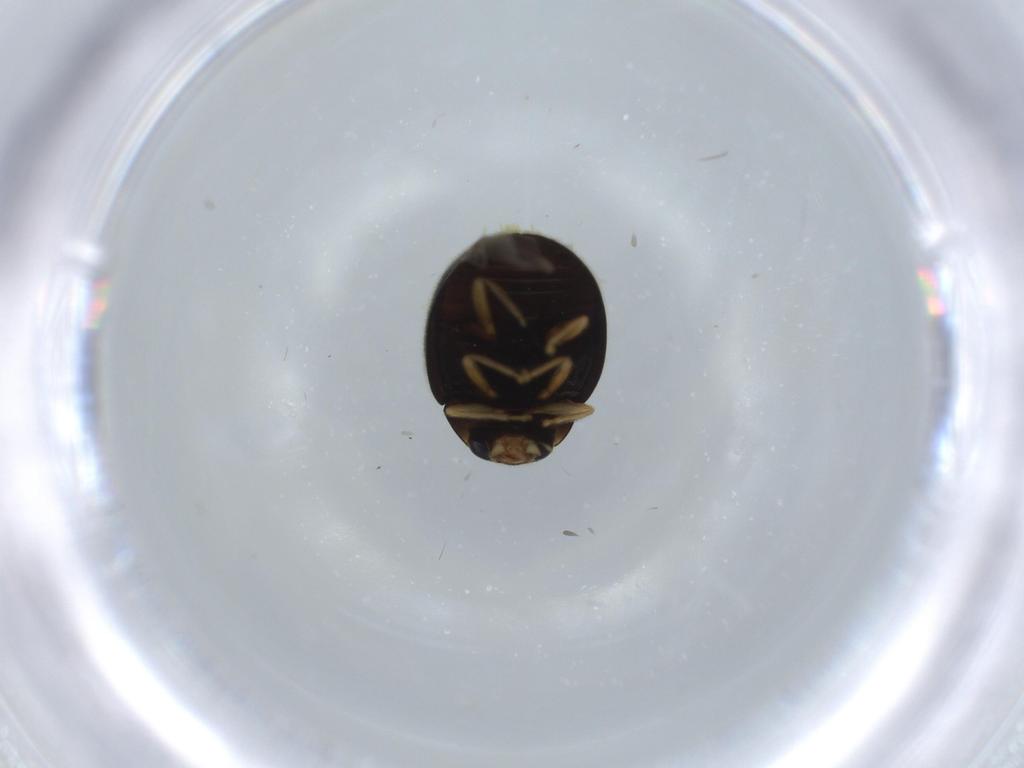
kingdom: Animalia
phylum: Arthropoda
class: Insecta
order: Coleoptera
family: Coccinellidae
